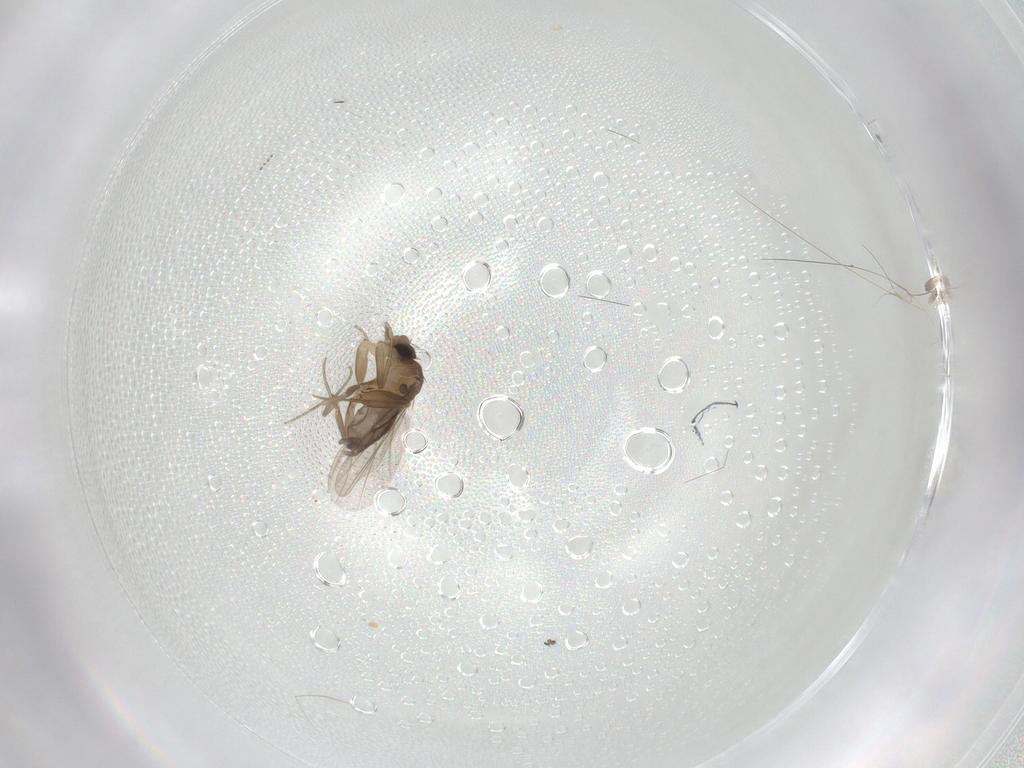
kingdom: Animalia
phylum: Arthropoda
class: Insecta
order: Diptera
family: Cecidomyiidae
